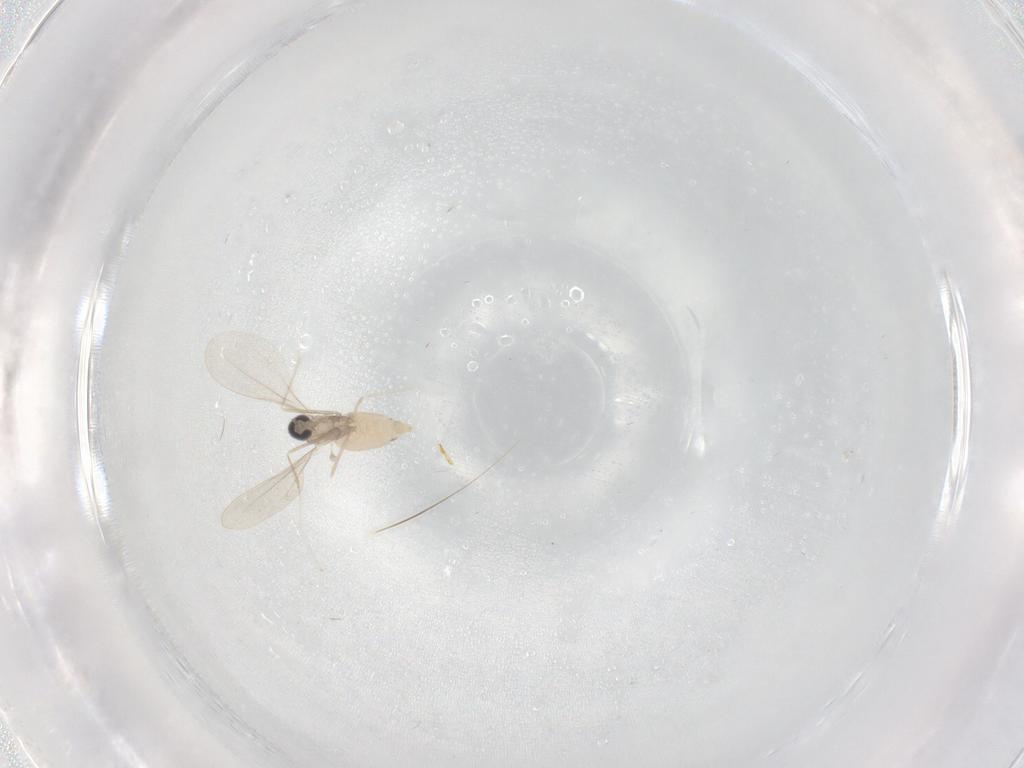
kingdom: Animalia
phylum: Arthropoda
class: Insecta
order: Diptera
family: Cecidomyiidae
